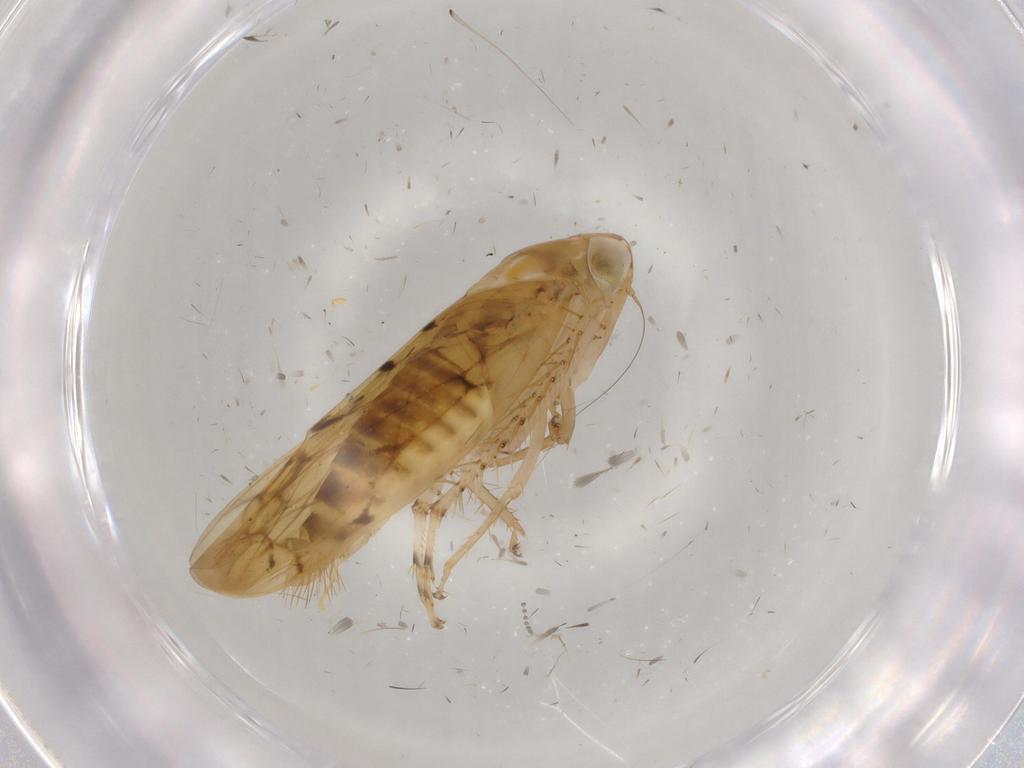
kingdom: Animalia
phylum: Arthropoda
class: Insecta
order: Hemiptera
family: Cicadellidae
